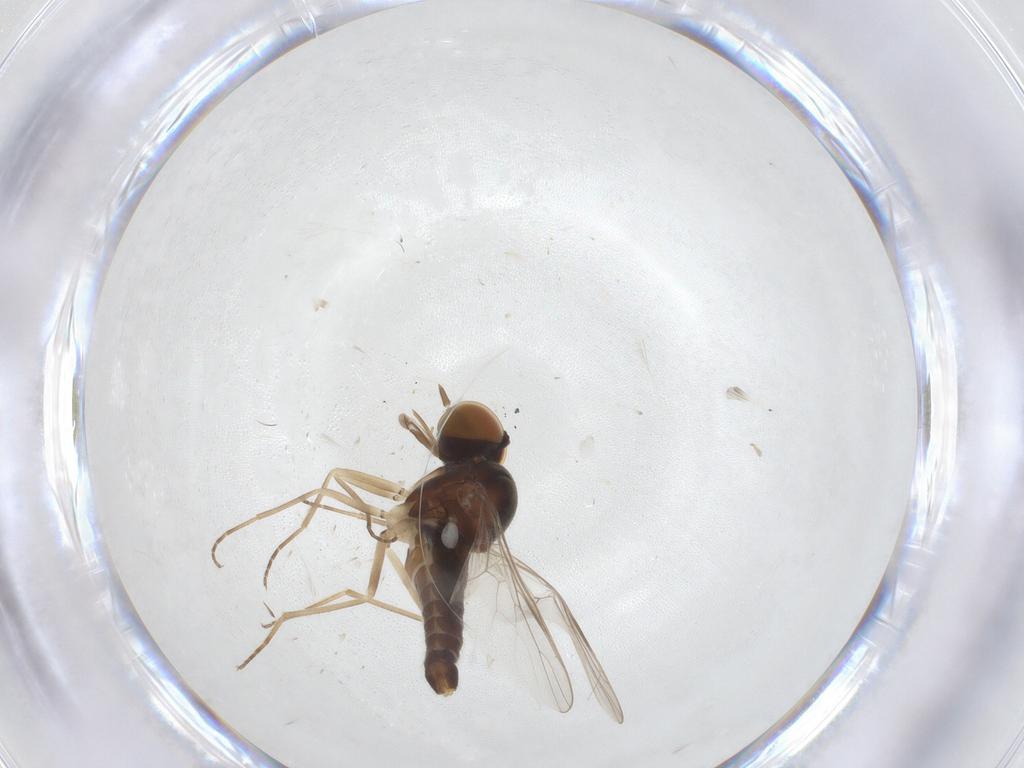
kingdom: Animalia
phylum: Arthropoda
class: Insecta
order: Diptera
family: Scenopinidae
